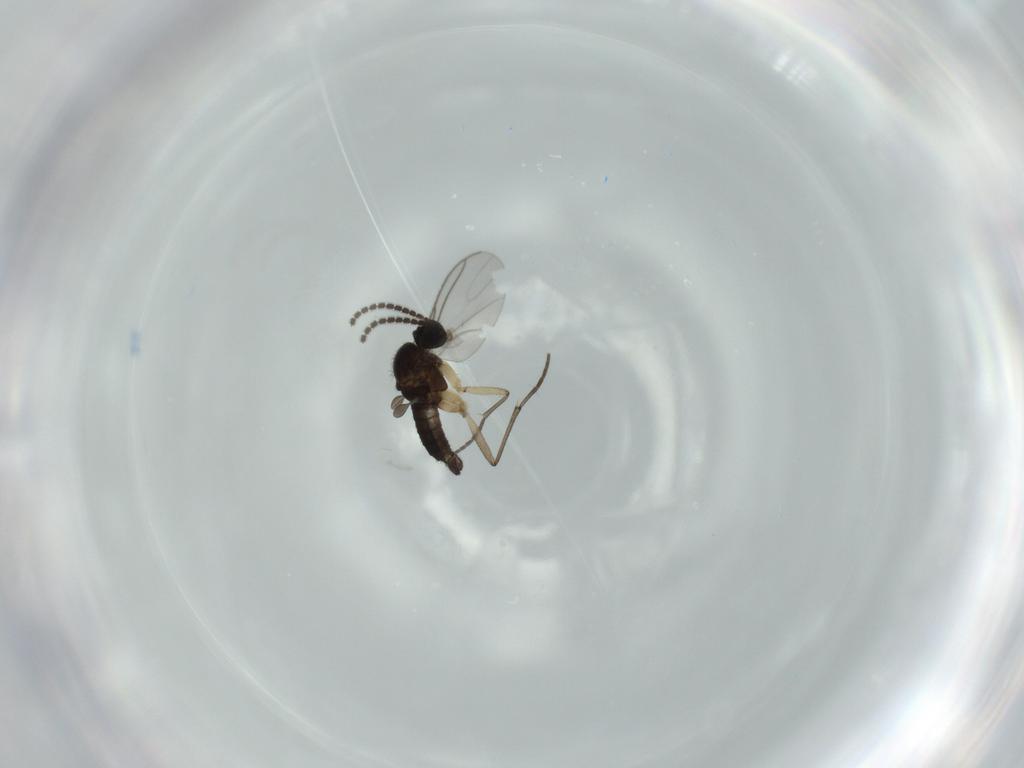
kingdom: Animalia
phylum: Arthropoda
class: Insecta
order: Diptera
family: Sciaridae
